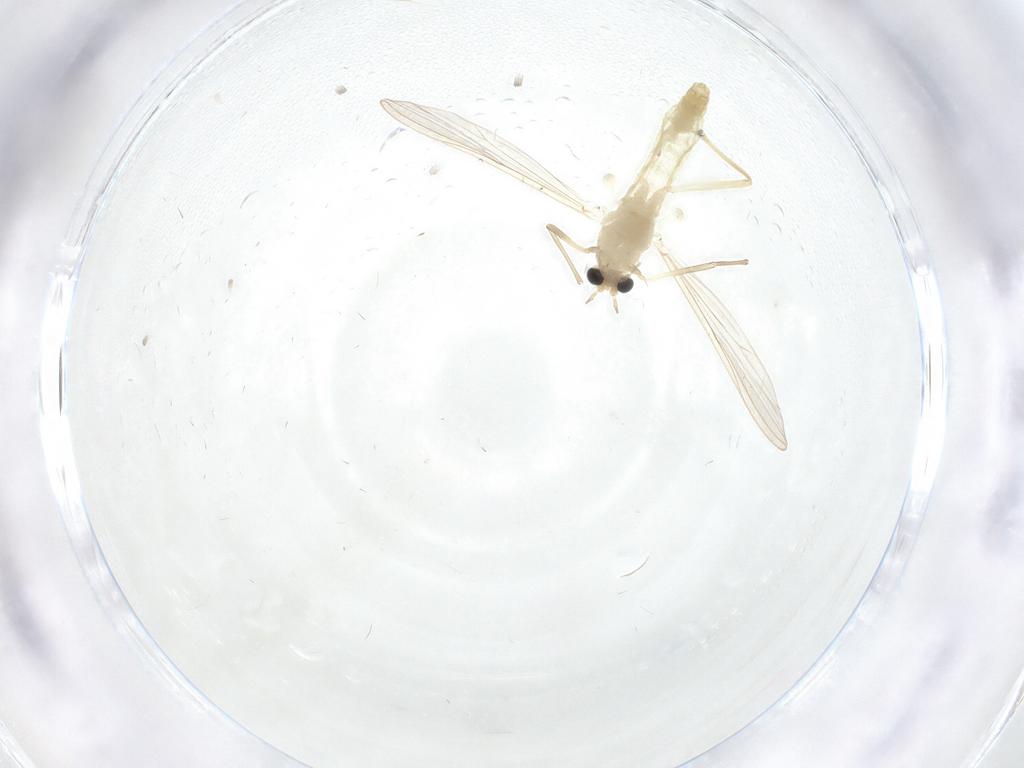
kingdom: Animalia
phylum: Arthropoda
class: Insecta
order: Diptera
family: Chironomidae
